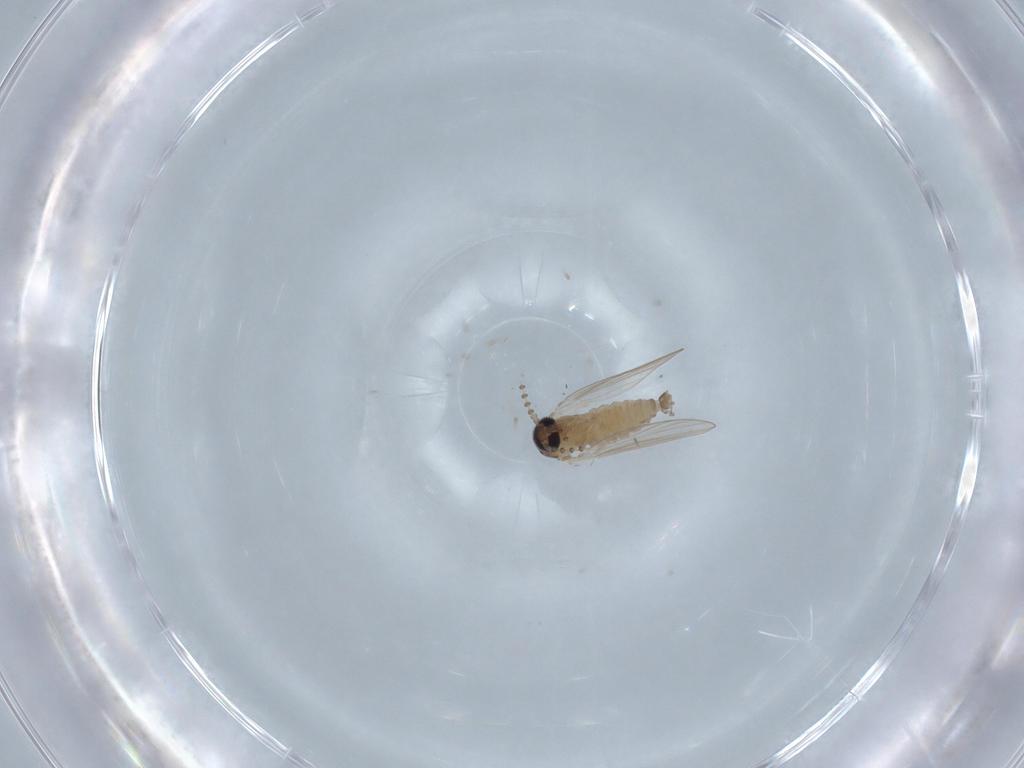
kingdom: Animalia
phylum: Arthropoda
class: Insecta
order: Diptera
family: Psychodidae
